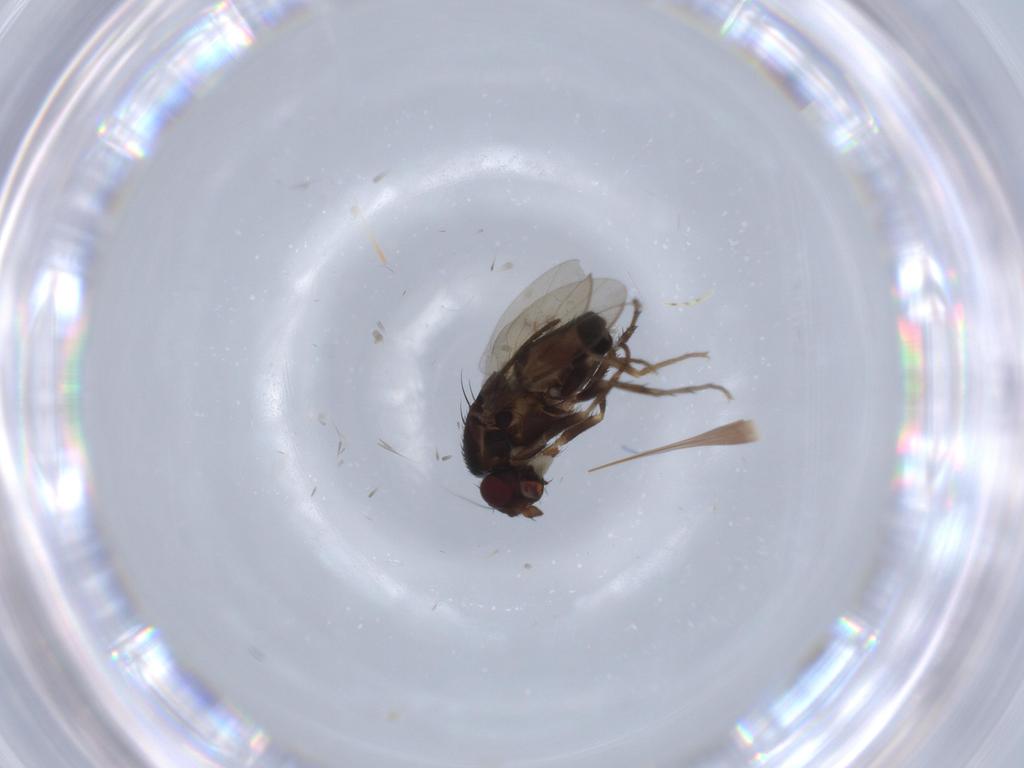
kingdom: Animalia
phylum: Arthropoda
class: Insecta
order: Diptera
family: Sphaeroceridae
